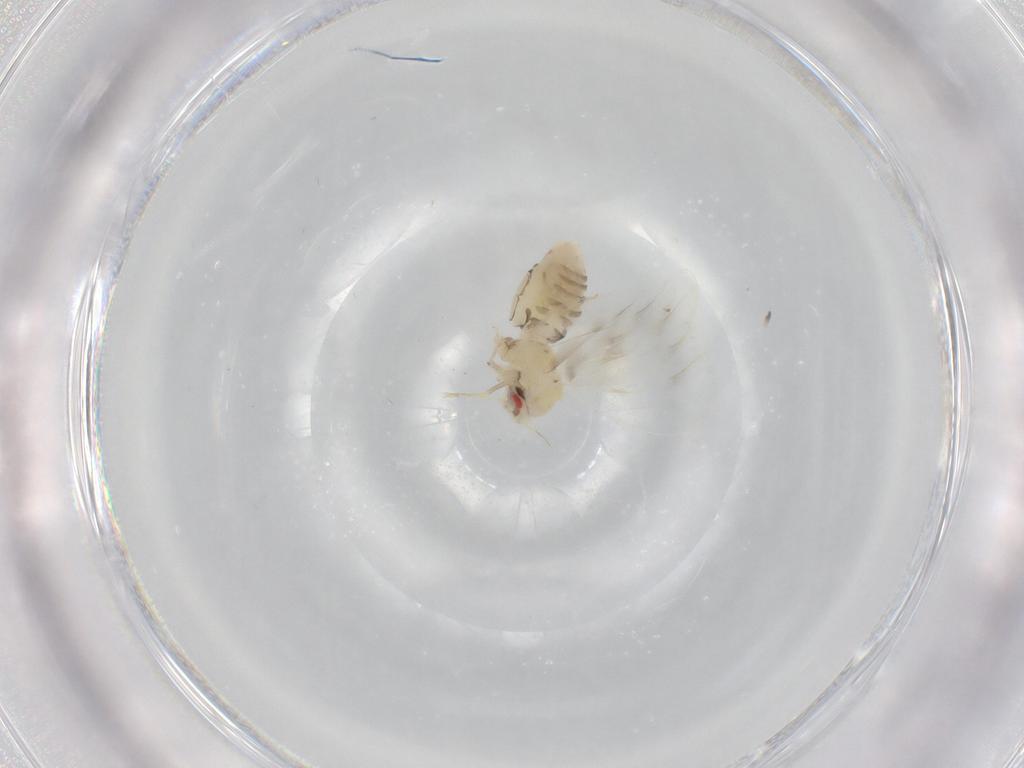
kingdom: Animalia
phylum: Arthropoda
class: Insecta
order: Hemiptera
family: Aleyrodidae
